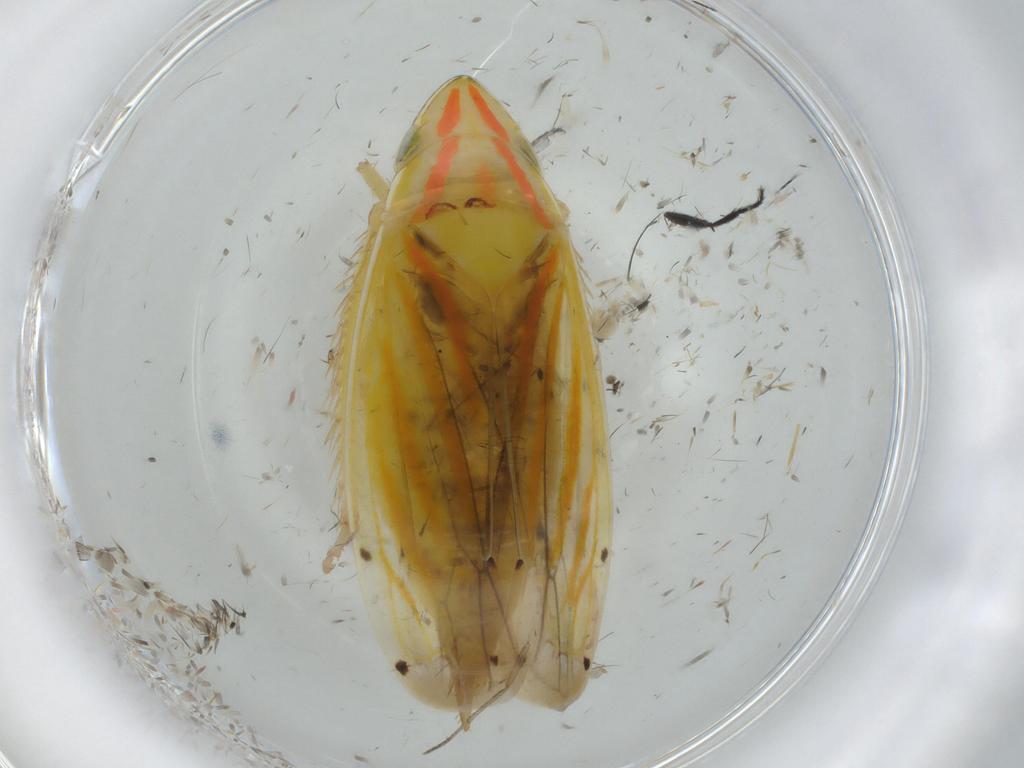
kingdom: Animalia
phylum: Arthropoda
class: Insecta
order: Hemiptera
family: Cicadellidae
